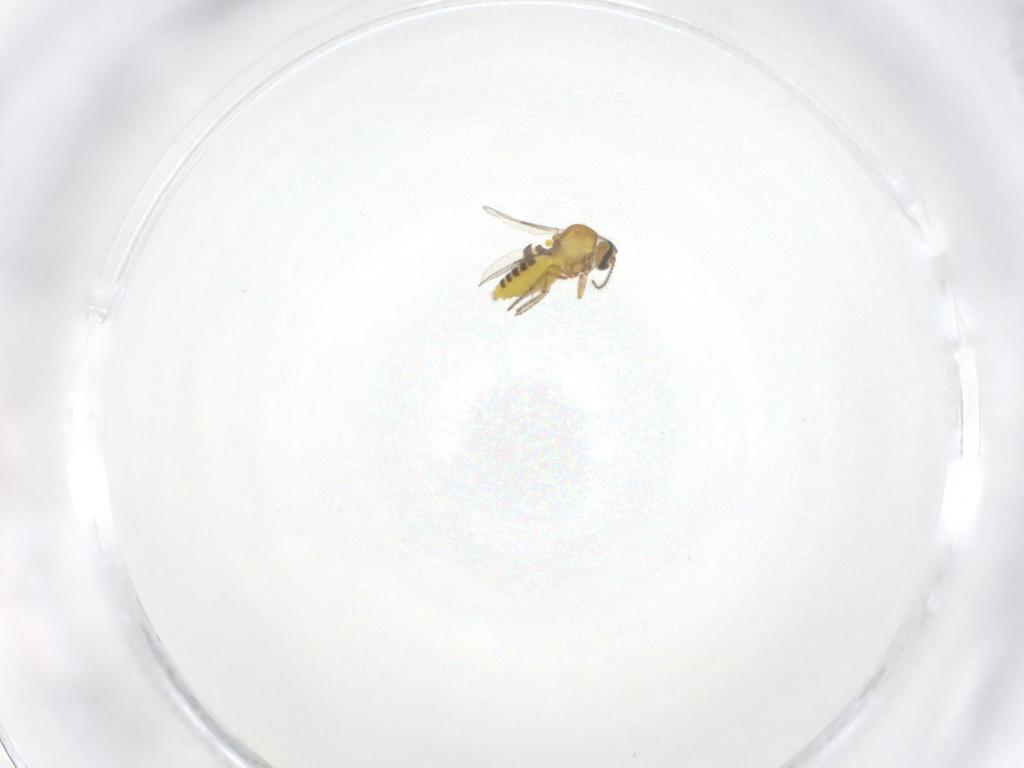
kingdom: Animalia
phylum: Arthropoda
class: Insecta
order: Diptera
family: Ceratopogonidae
